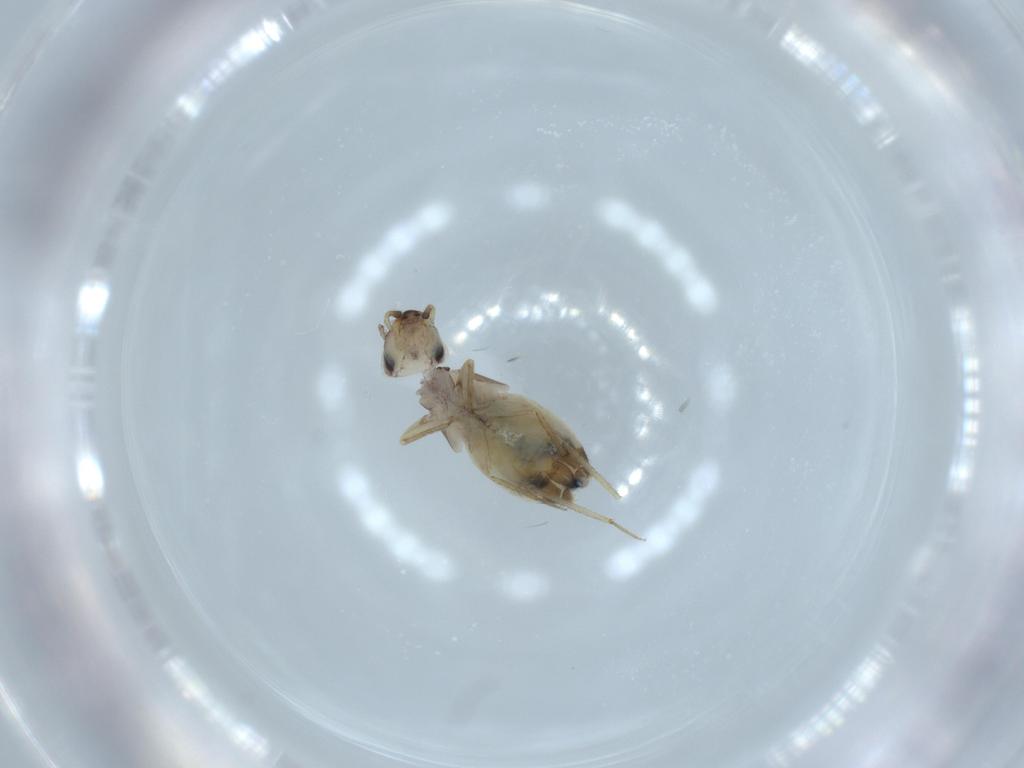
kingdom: Animalia
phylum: Arthropoda
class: Insecta
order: Psocodea
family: Lepidopsocidae
